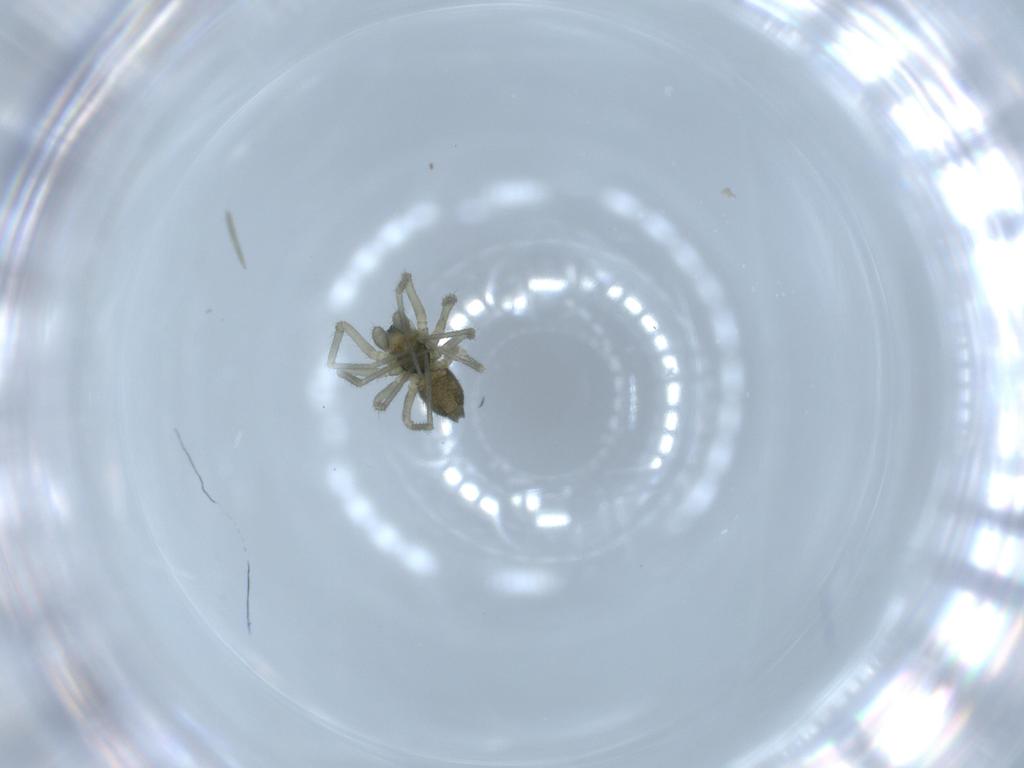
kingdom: Animalia
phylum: Arthropoda
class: Arachnida
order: Araneae
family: Linyphiidae
